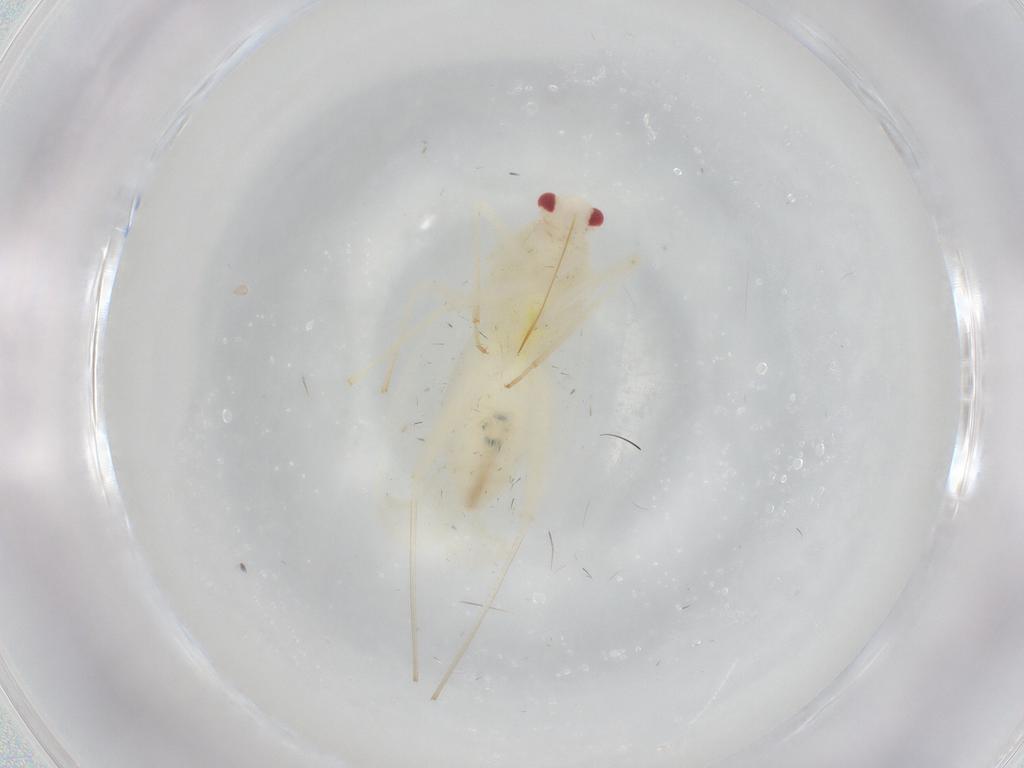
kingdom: Animalia
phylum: Arthropoda
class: Insecta
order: Hemiptera
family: Miridae
